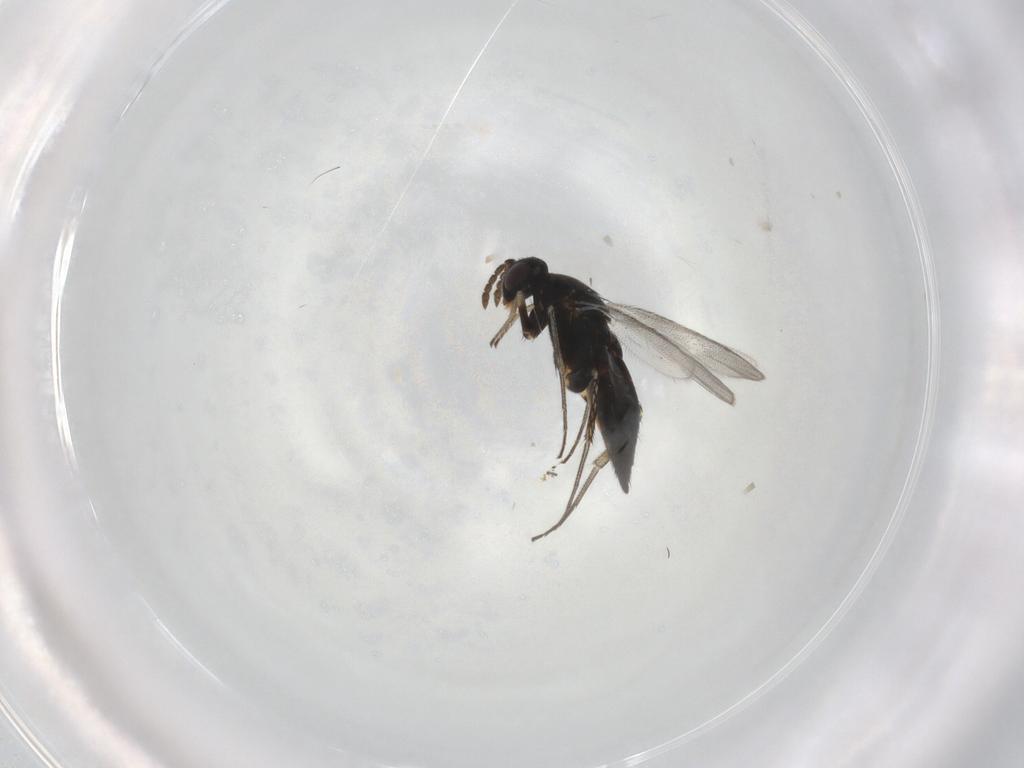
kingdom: Animalia
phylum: Arthropoda
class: Insecta
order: Hymenoptera
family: Eulophidae
